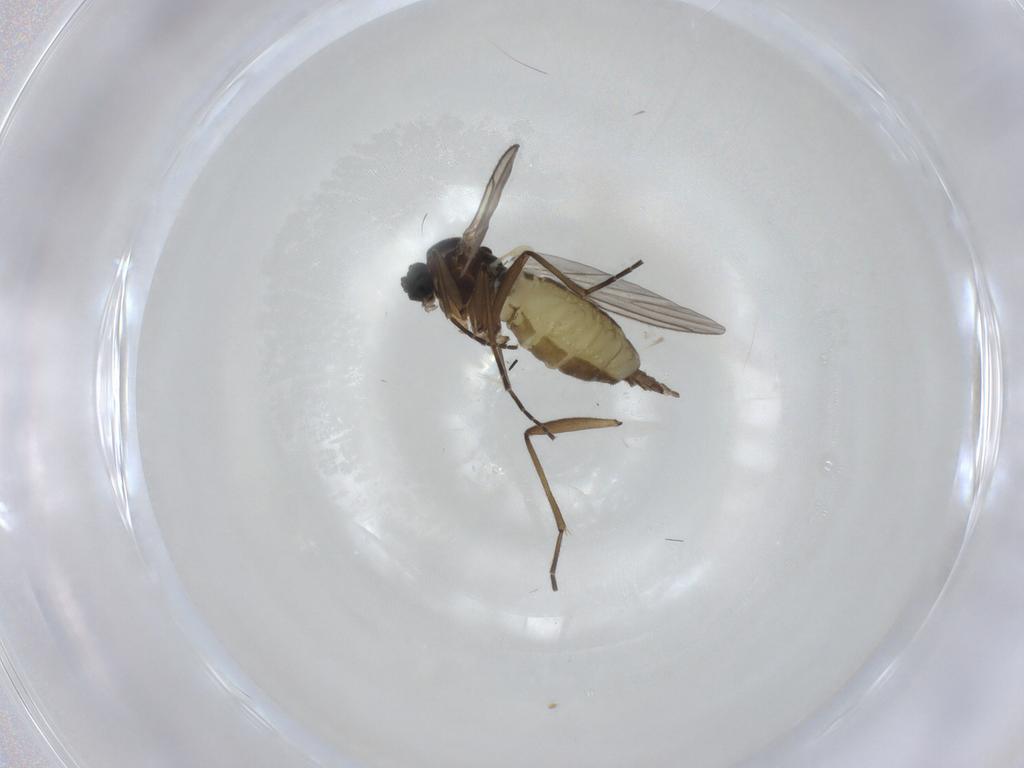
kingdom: Animalia
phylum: Arthropoda
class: Insecta
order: Diptera
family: Cecidomyiidae
